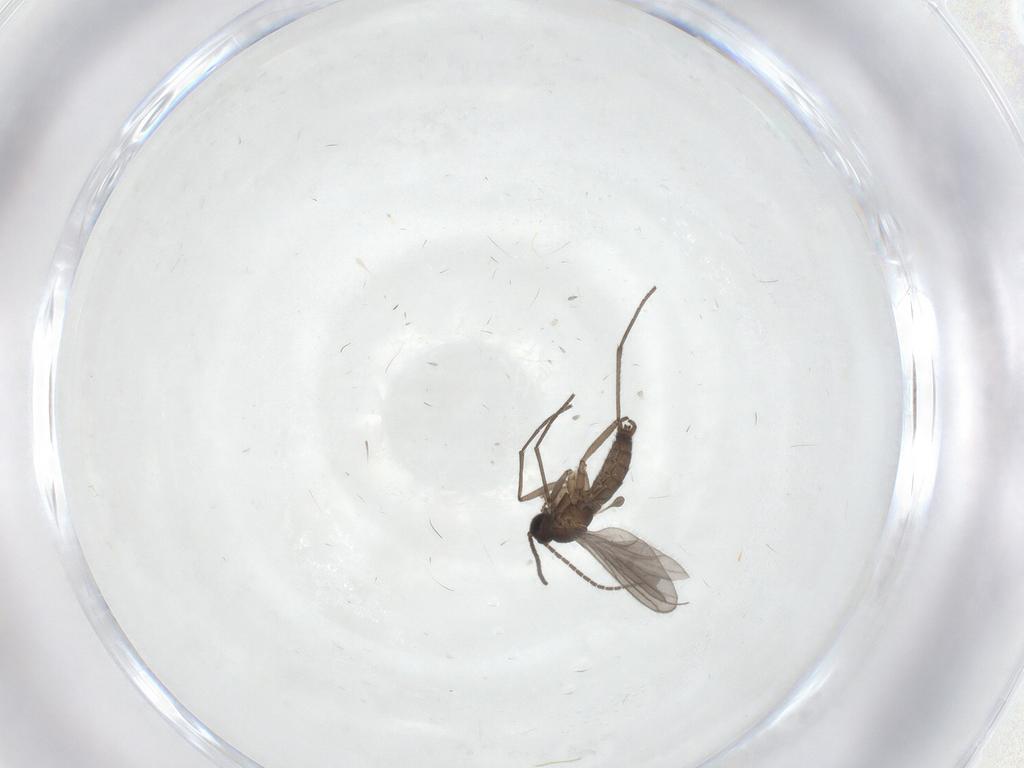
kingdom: Animalia
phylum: Arthropoda
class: Insecta
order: Diptera
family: Sciaridae
